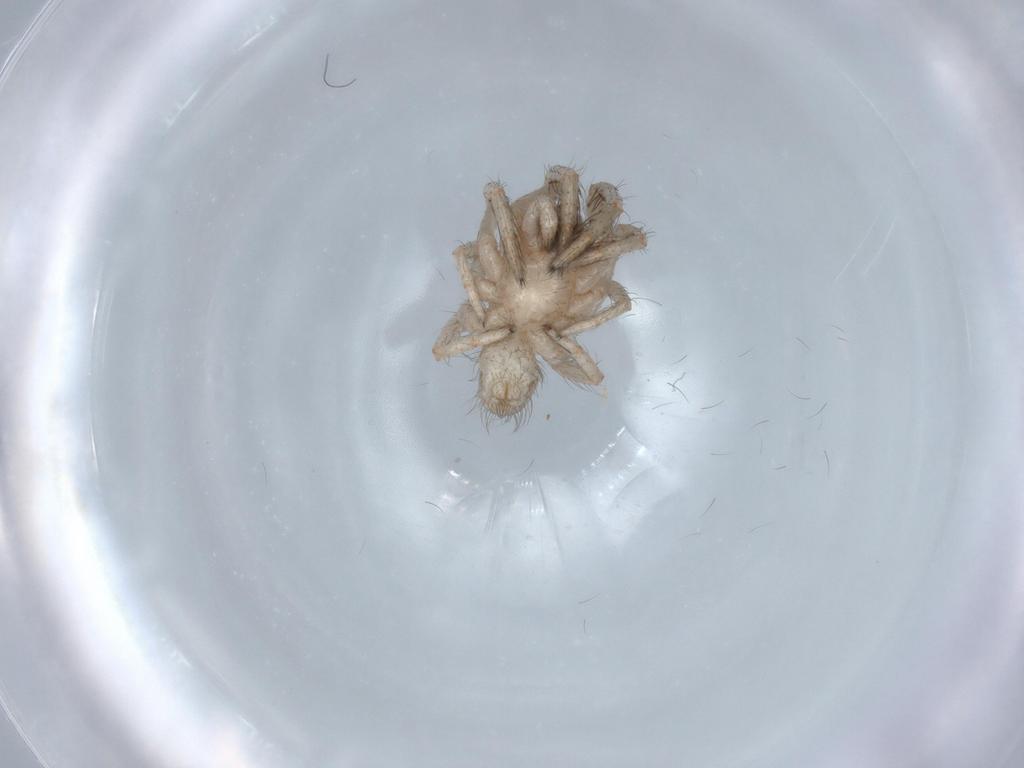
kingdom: Animalia
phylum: Arthropoda
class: Arachnida
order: Araneae
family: Segestriidae
